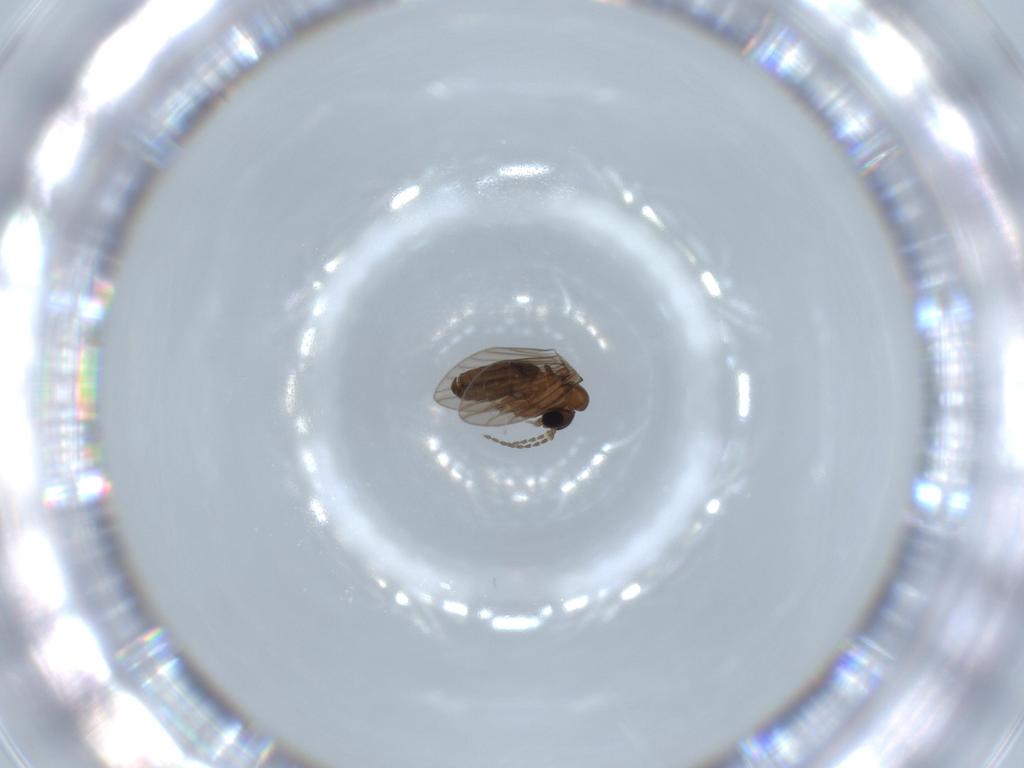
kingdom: Animalia
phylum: Arthropoda
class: Insecta
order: Diptera
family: Psychodidae
